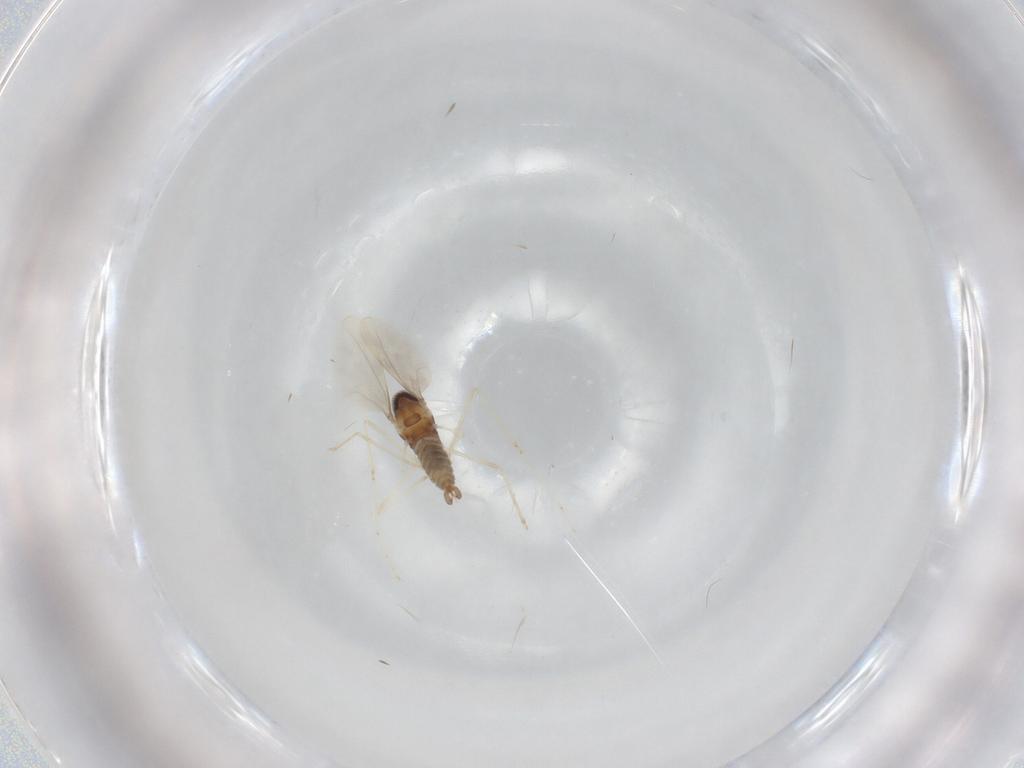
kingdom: Animalia
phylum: Arthropoda
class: Insecta
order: Diptera
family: Cecidomyiidae
